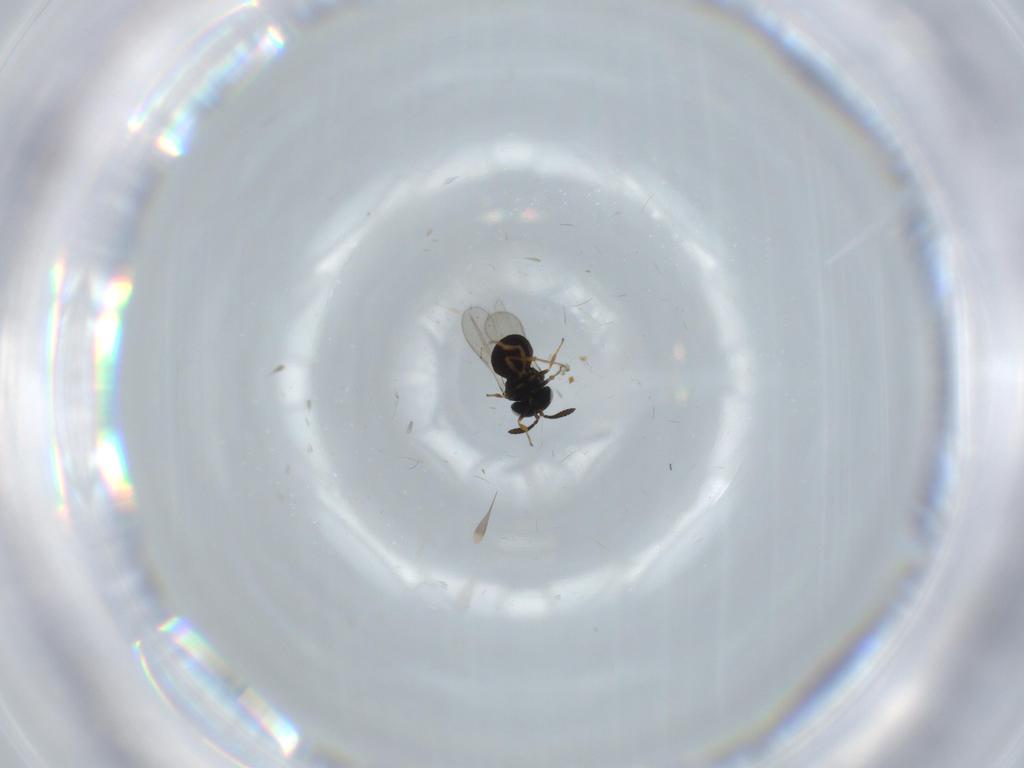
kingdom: Animalia
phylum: Arthropoda
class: Insecta
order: Hymenoptera
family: Scelionidae
